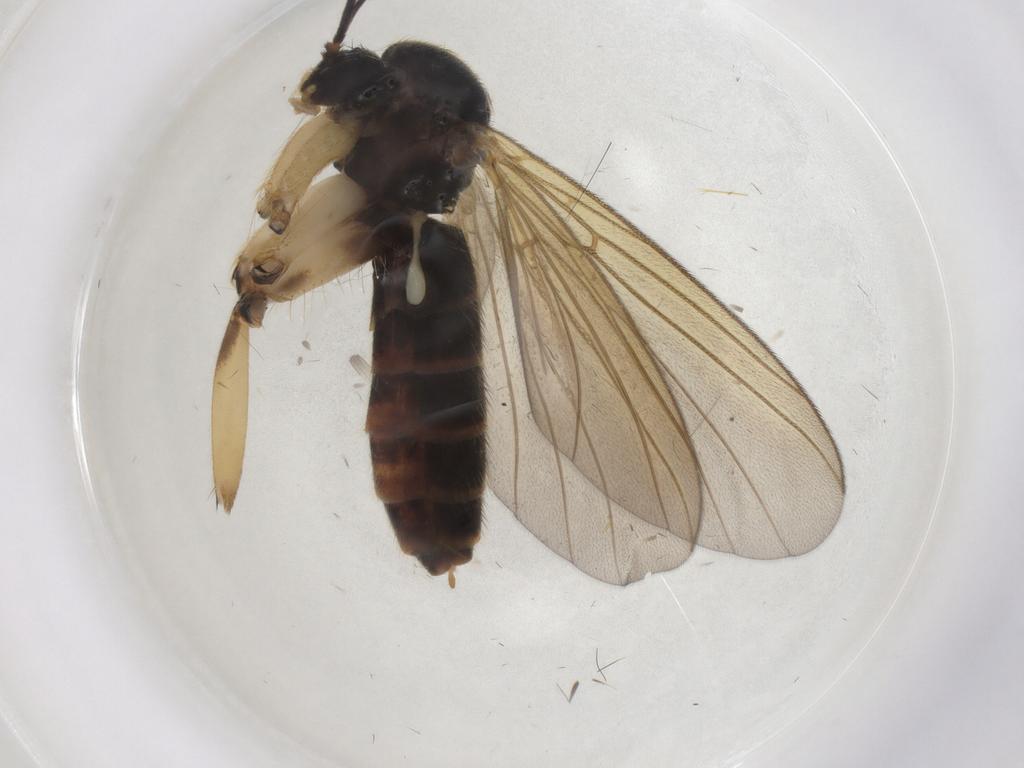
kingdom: Animalia
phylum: Arthropoda
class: Insecta
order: Diptera
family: Mycetophilidae
